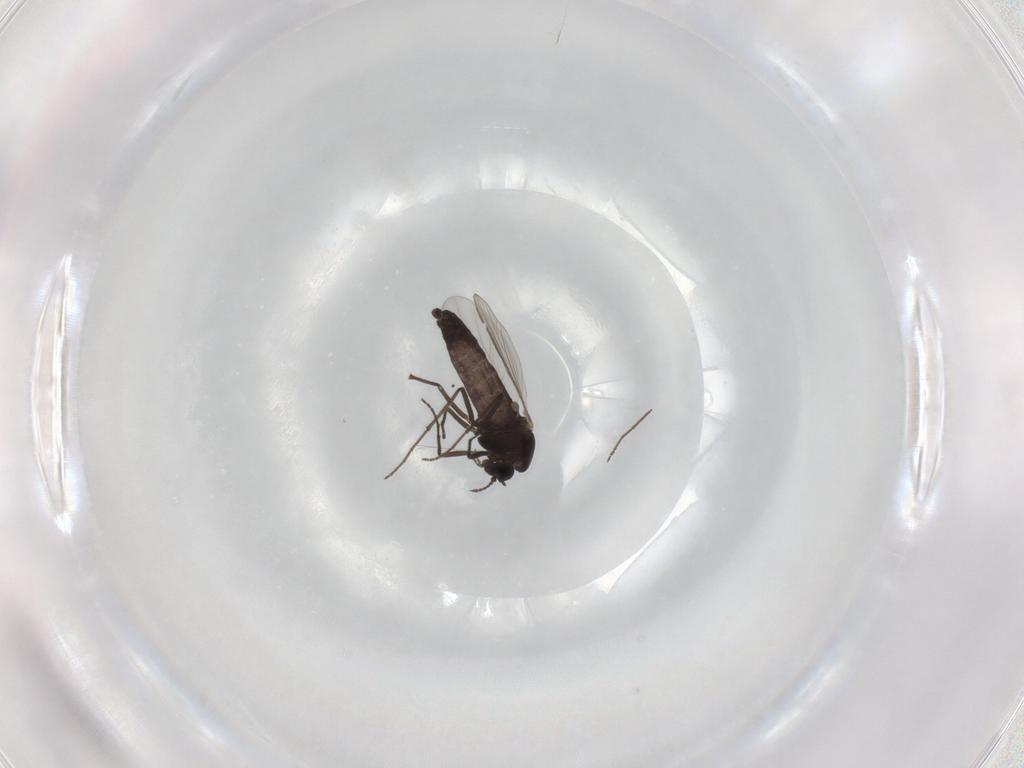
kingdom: Animalia
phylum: Arthropoda
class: Insecta
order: Diptera
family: Chironomidae
